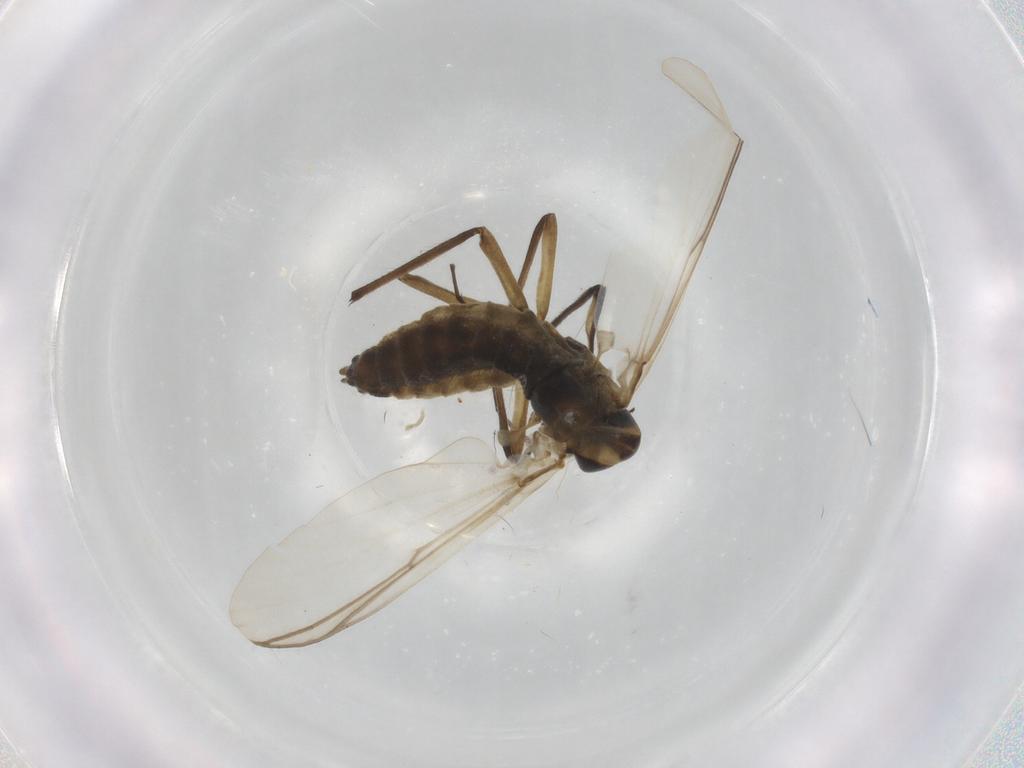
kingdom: Animalia
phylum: Arthropoda
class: Insecta
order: Diptera
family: Chironomidae
